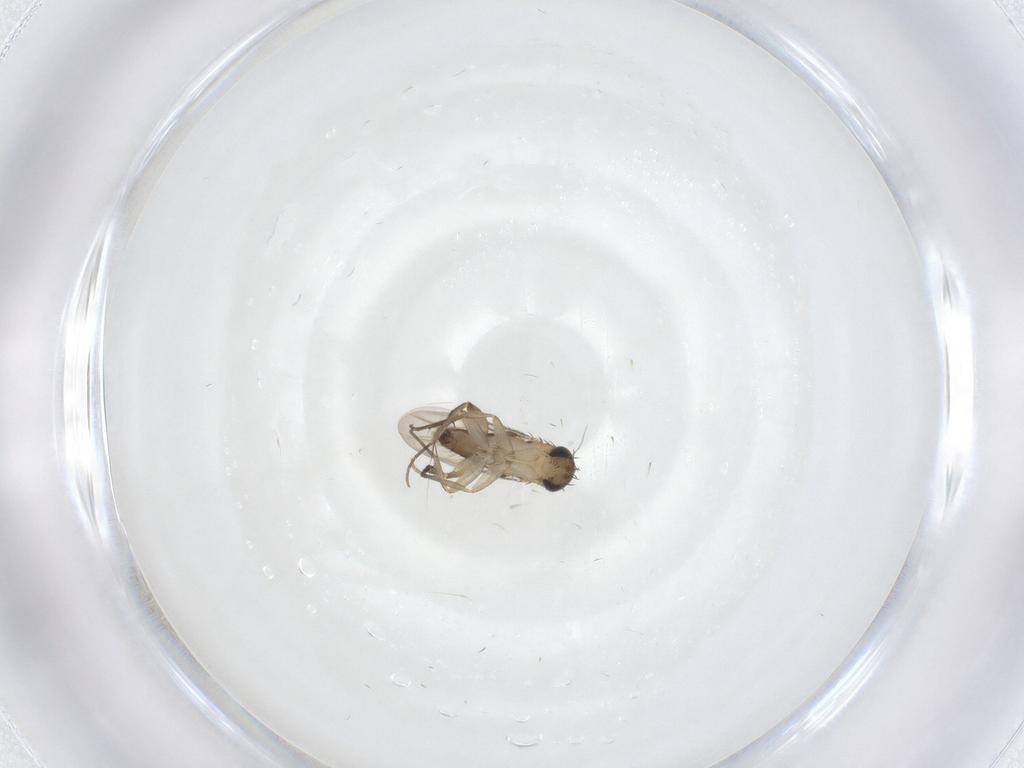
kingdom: Animalia
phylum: Arthropoda
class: Insecta
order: Diptera
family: Phoridae
